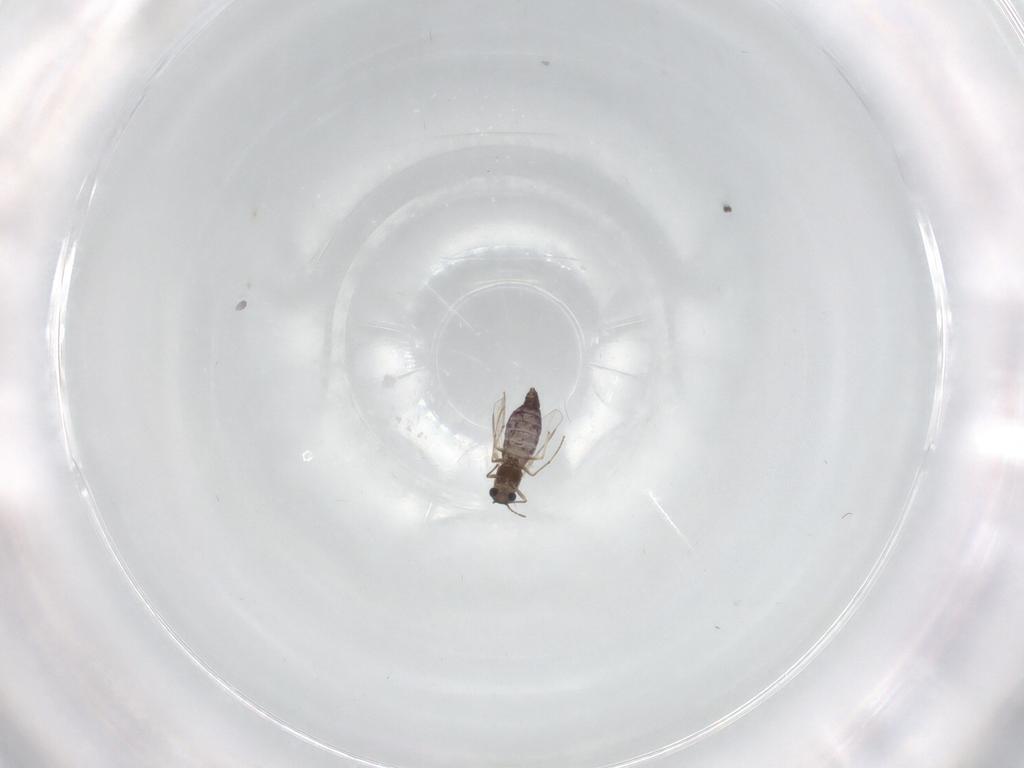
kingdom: Animalia
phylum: Arthropoda
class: Insecta
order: Diptera
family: Chironomidae
